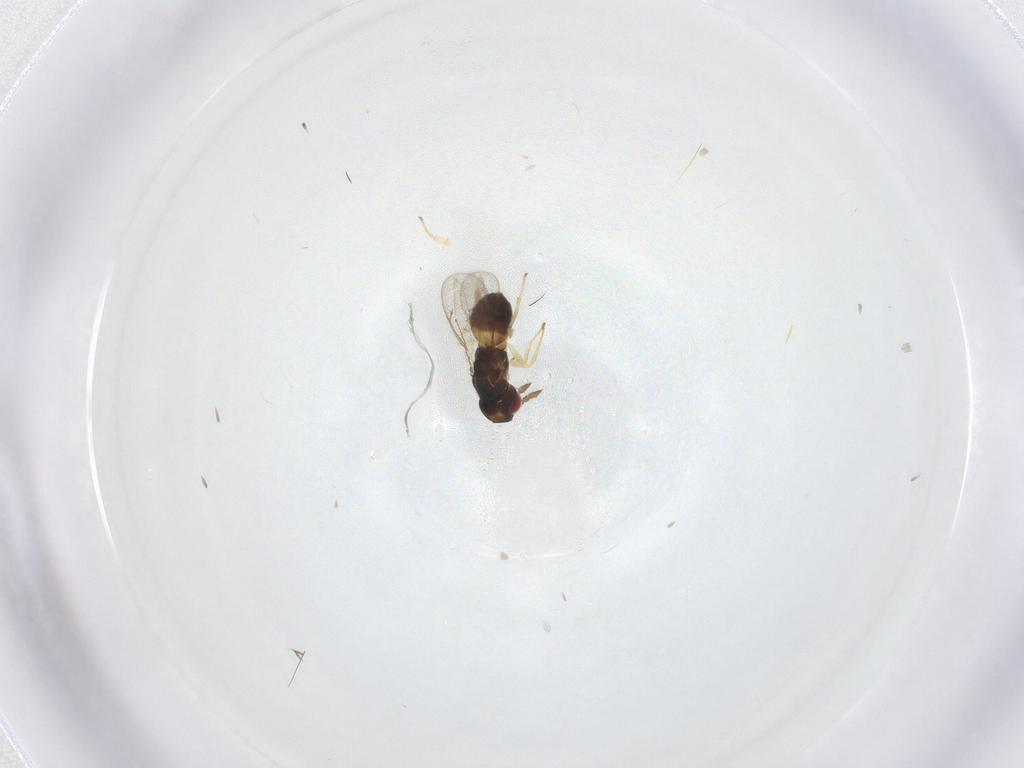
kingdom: Animalia
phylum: Arthropoda
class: Insecta
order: Hymenoptera
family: Eulophidae
